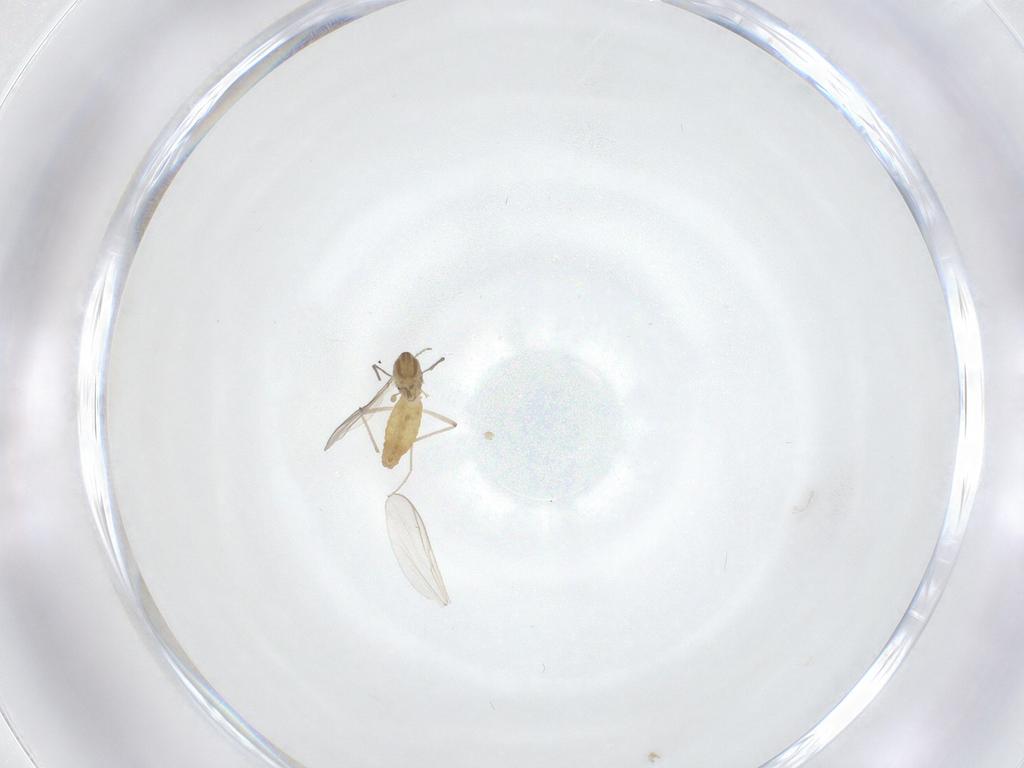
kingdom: Animalia
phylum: Arthropoda
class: Insecta
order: Diptera
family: Chironomidae
